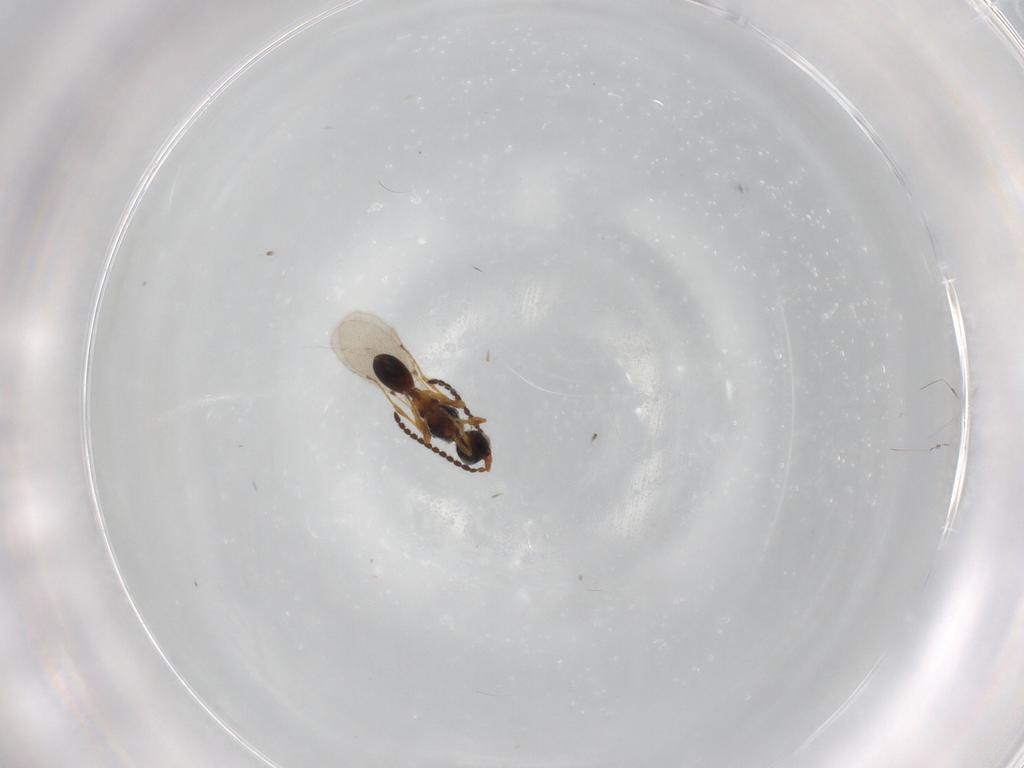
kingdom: Animalia
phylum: Arthropoda
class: Insecta
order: Hymenoptera
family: Diapriidae
